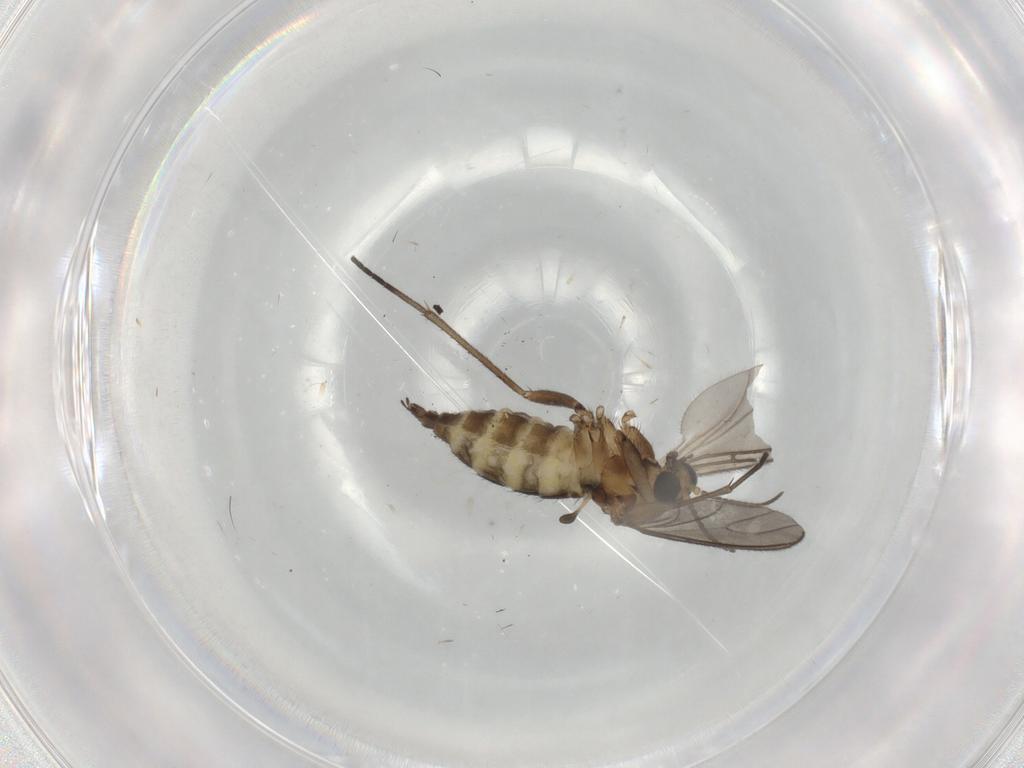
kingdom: Animalia
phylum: Arthropoda
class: Insecta
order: Diptera
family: Sciaridae
